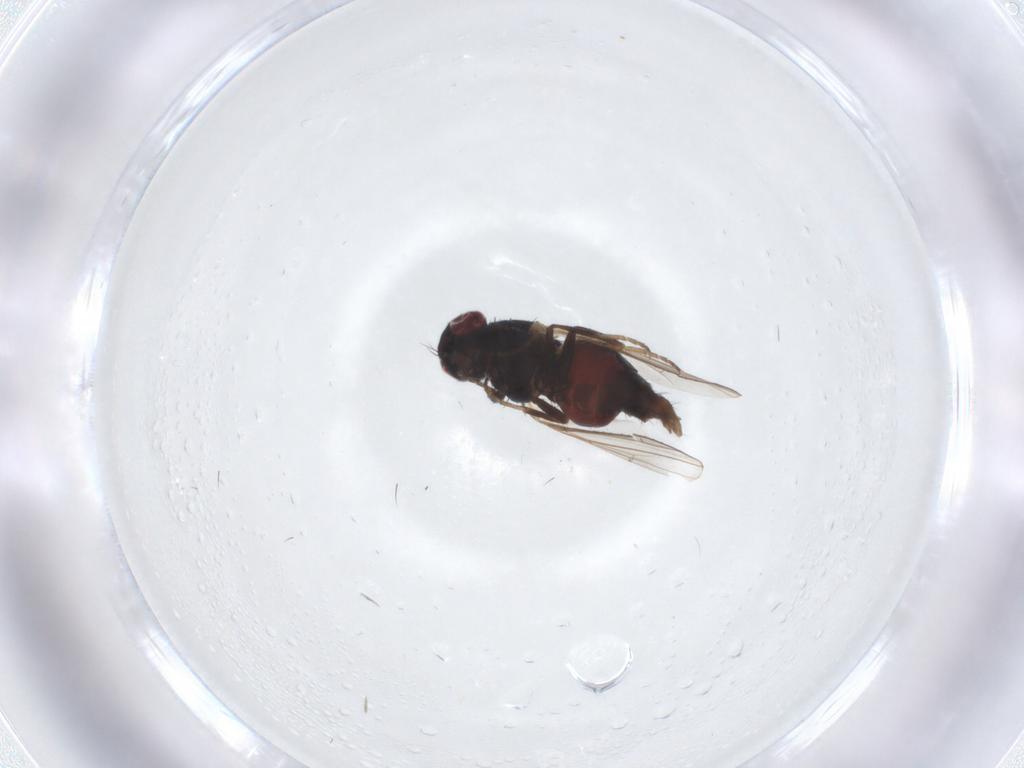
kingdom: Animalia
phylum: Arthropoda
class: Insecta
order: Diptera
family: Carnidae
